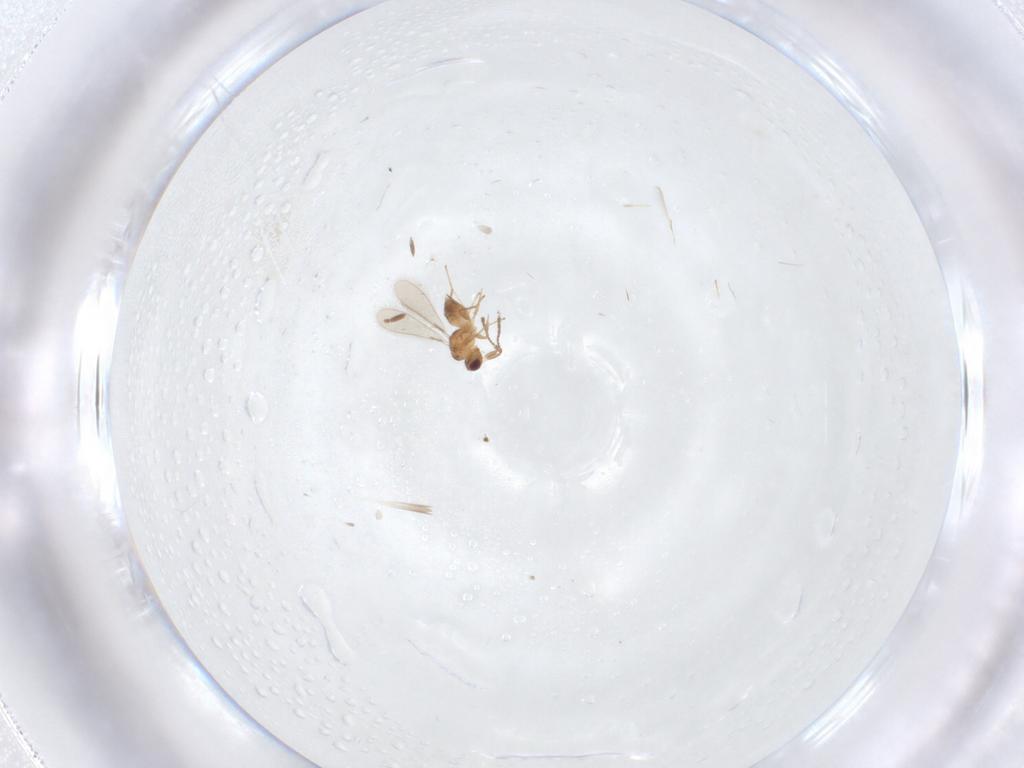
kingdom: Animalia
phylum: Arthropoda
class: Insecta
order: Hymenoptera
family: Mymaridae
